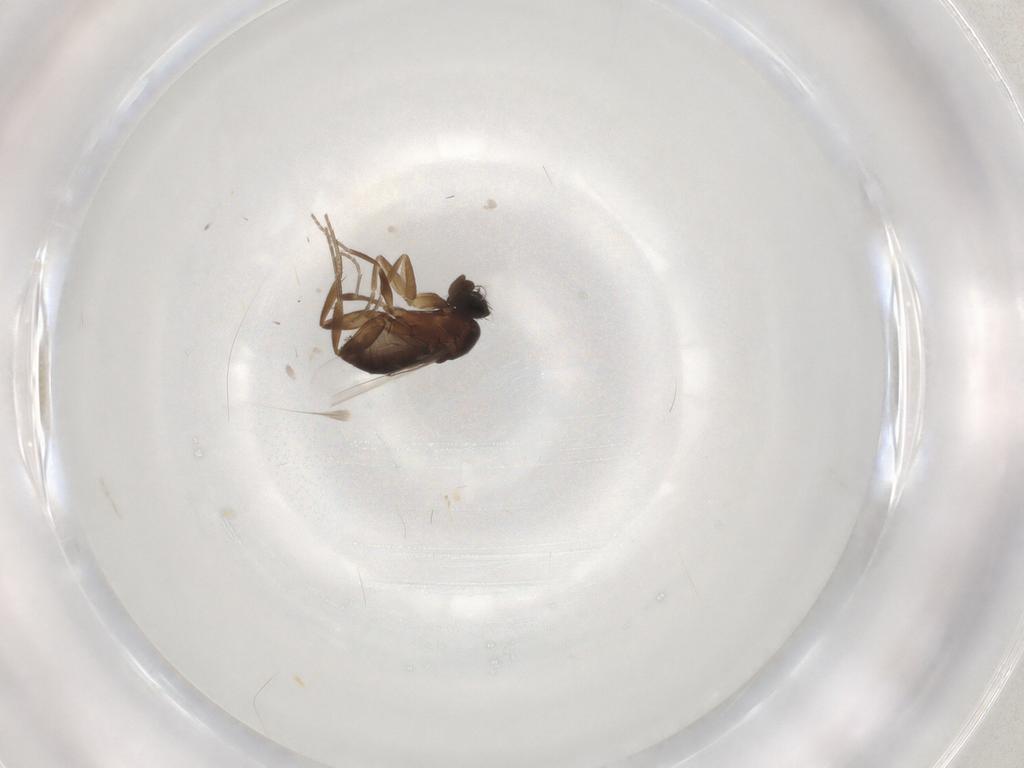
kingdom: Animalia
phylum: Arthropoda
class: Insecta
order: Diptera
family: Phoridae
